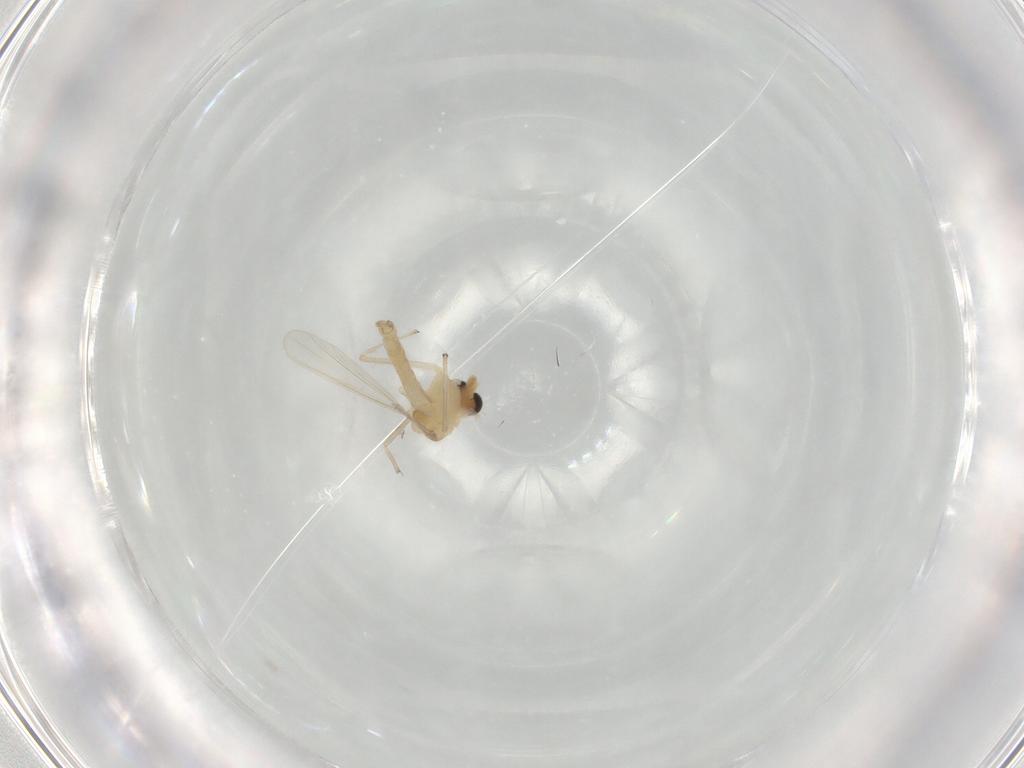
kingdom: Animalia
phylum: Arthropoda
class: Insecta
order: Diptera
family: Chironomidae
